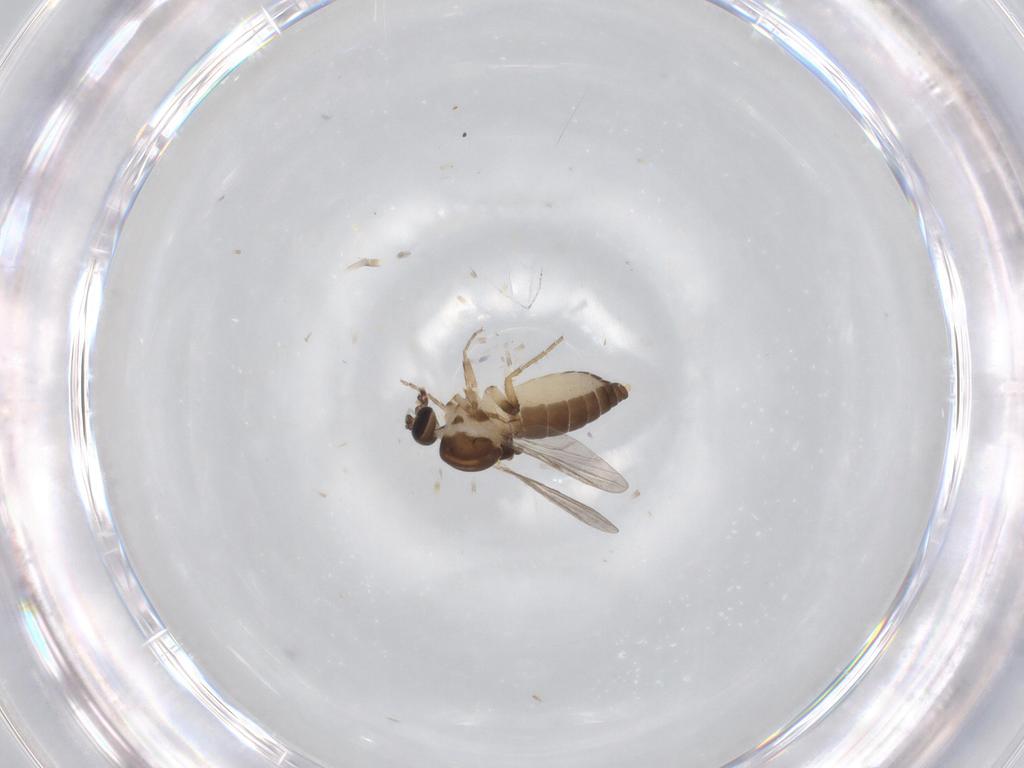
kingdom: Animalia
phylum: Arthropoda
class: Insecta
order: Diptera
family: Ceratopogonidae
